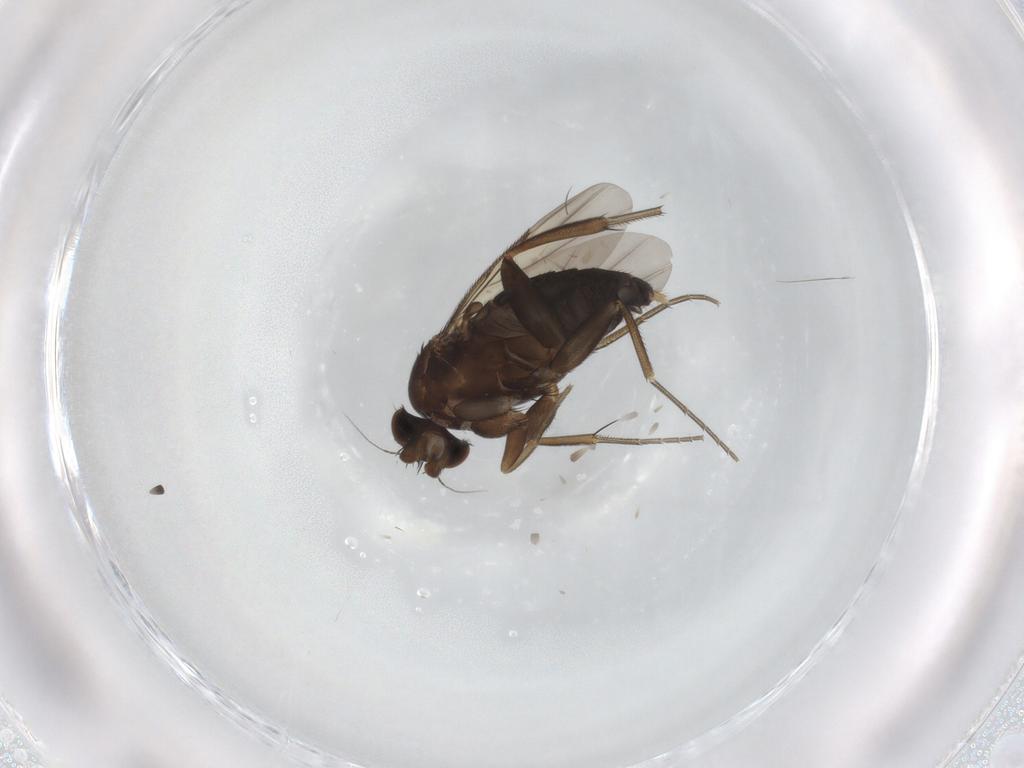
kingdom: Animalia
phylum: Arthropoda
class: Insecta
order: Diptera
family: Phoridae
